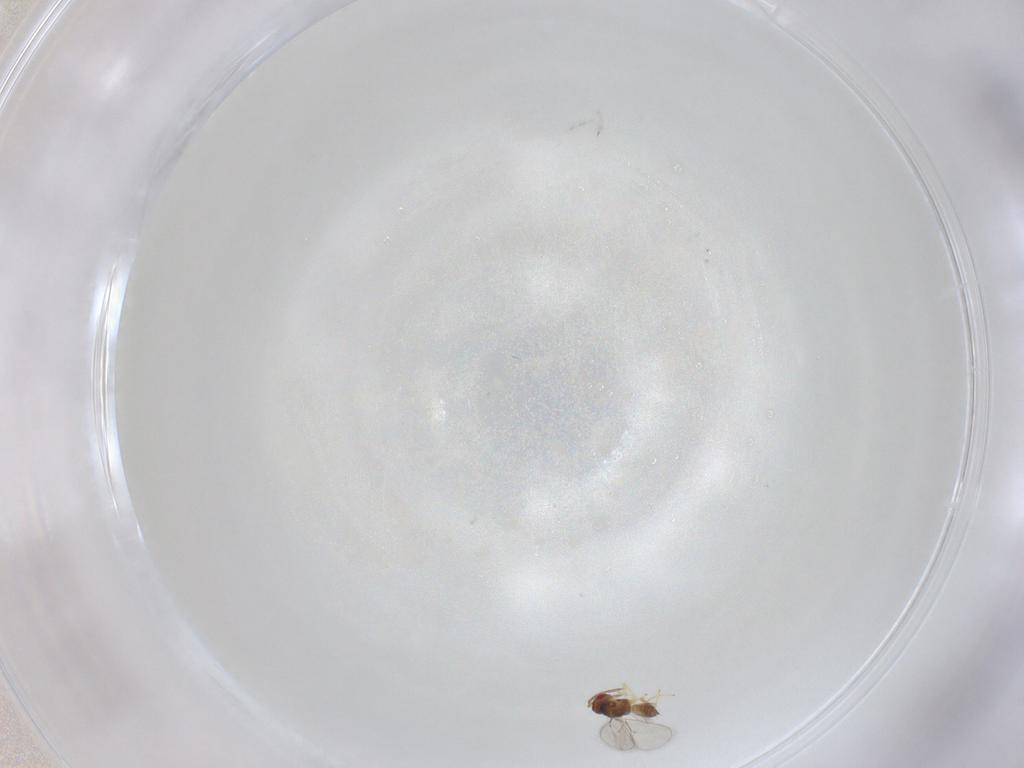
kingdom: Animalia
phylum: Arthropoda
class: Insecta
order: Hymenoptera
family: Eulophidae
